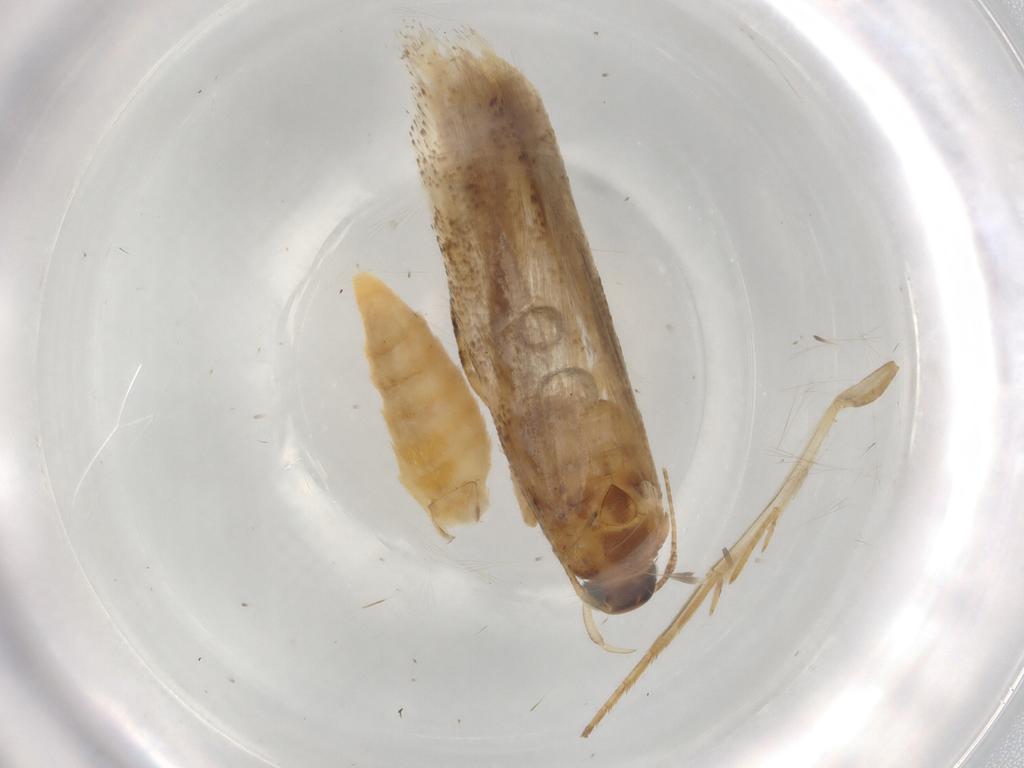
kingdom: Animalia
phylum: Arthropoda
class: Insecta
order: Lepidoptera
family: Gelechiidae
